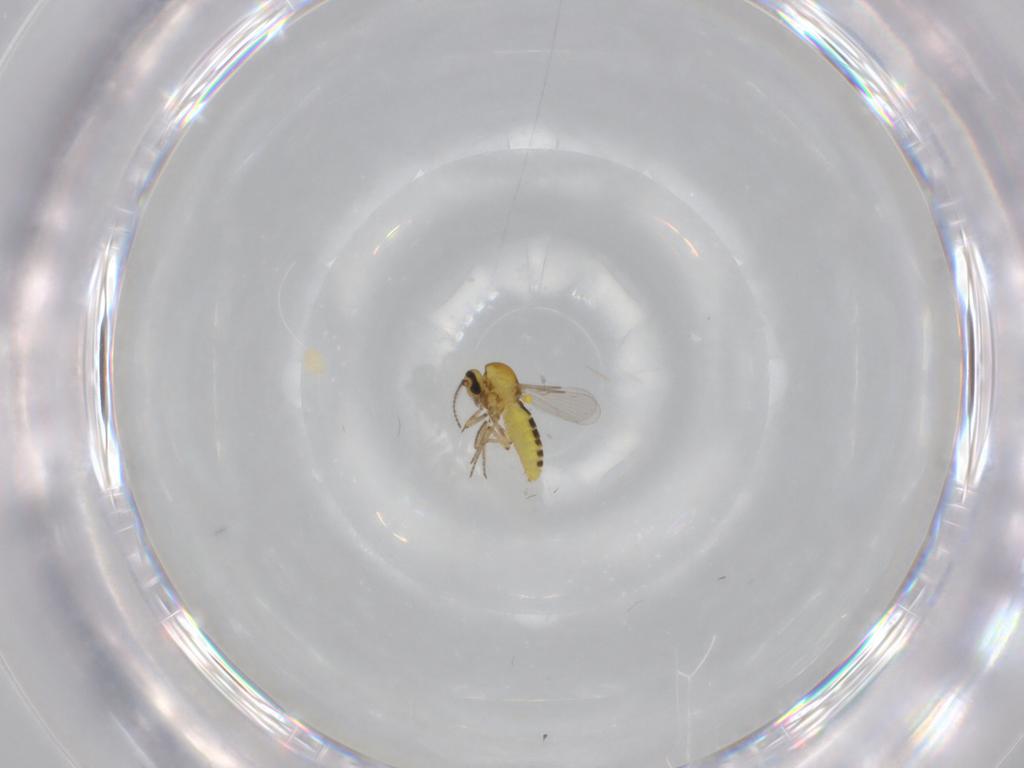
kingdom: Animalia
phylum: Arthropoda
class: Insecta
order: Diptera
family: Ceratopogonidae
